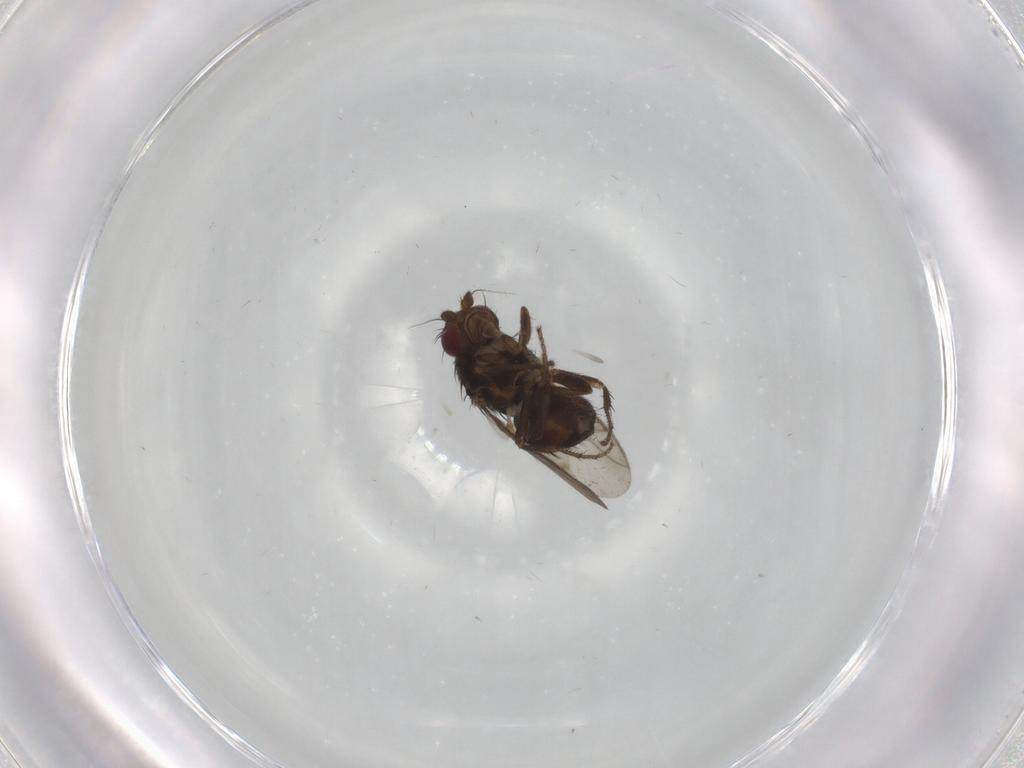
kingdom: Animalia
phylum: Arthropoda
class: Insecta
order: Diptera
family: Sphaeroceridae
